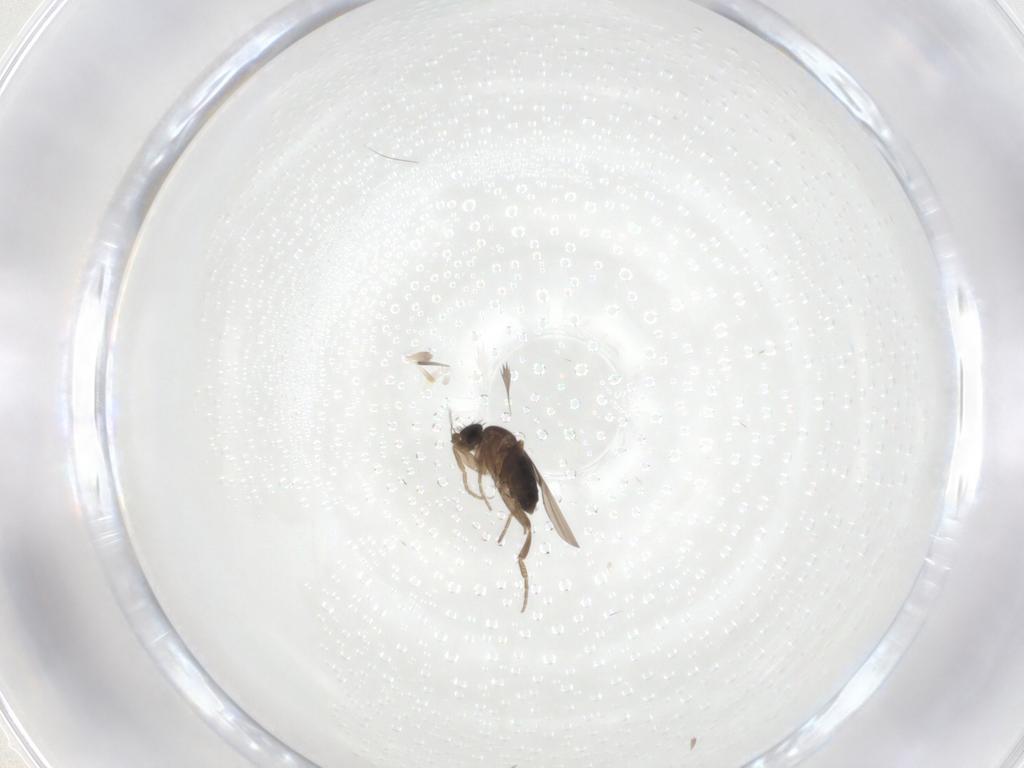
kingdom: Animalia
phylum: Arthropoda
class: Insecta
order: Diptera
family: Phoridae
